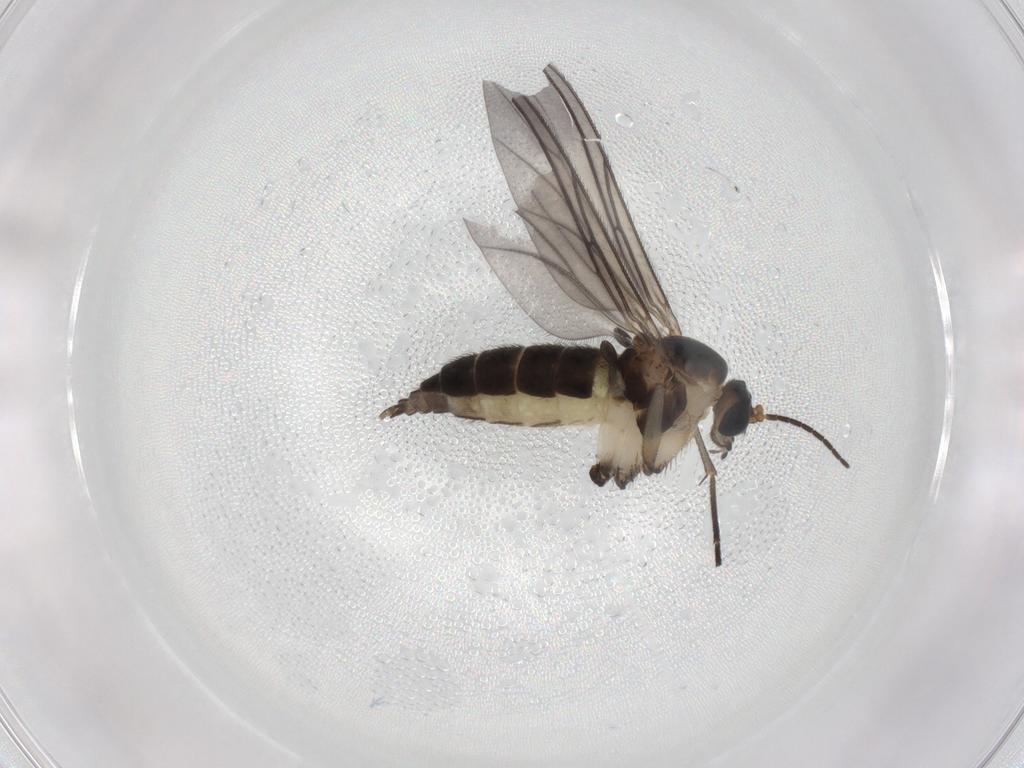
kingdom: Animalia
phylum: Arthropoda
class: Insecta
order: Diptera
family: Sciaridae
